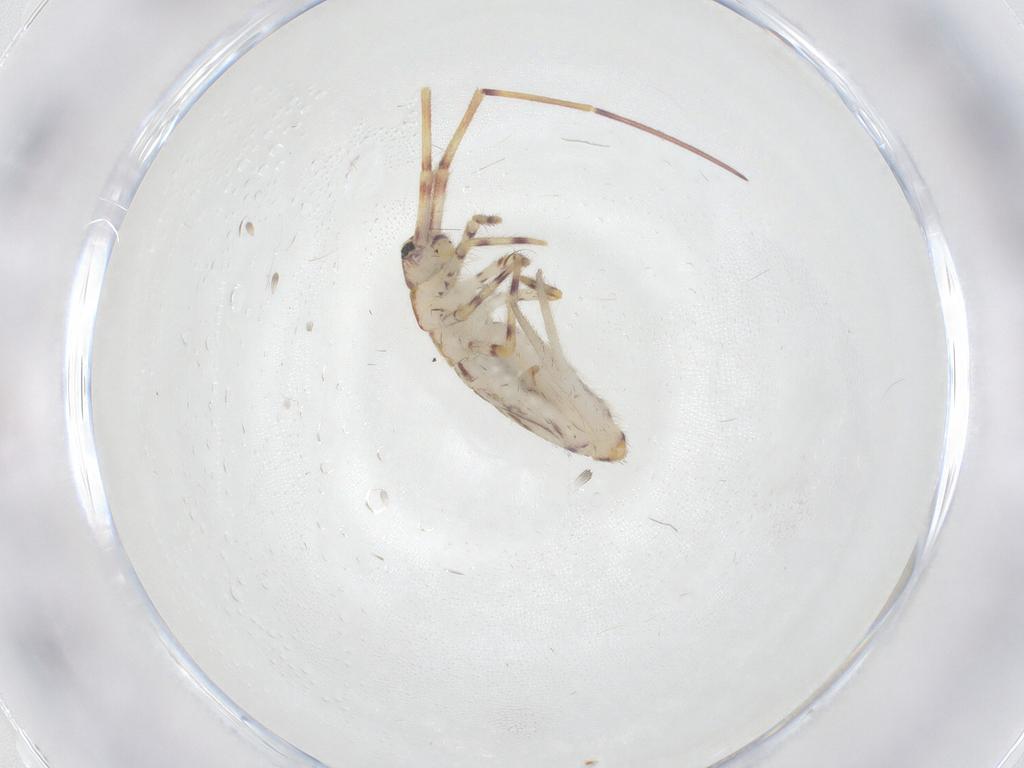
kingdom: Animalia
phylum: Arthropoda
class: Collembola
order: Entomobryomorpha
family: Entomobryidae
